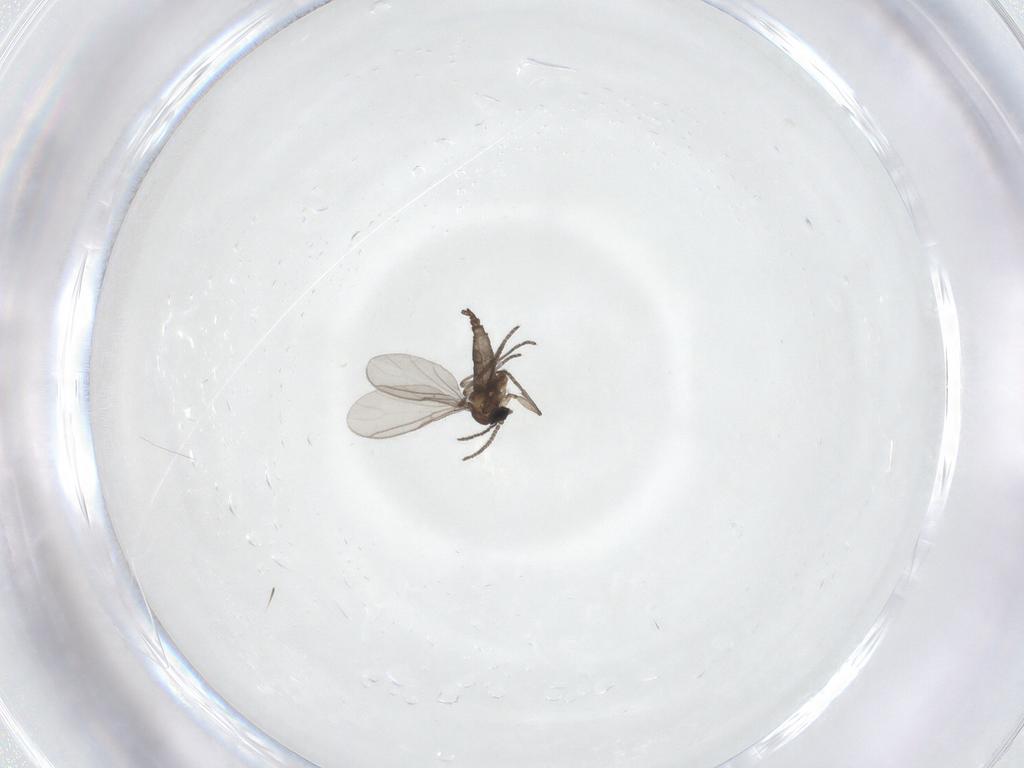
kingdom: Animalia
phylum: Arthropoda
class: Insecta
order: Diptera
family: Sciaridae
